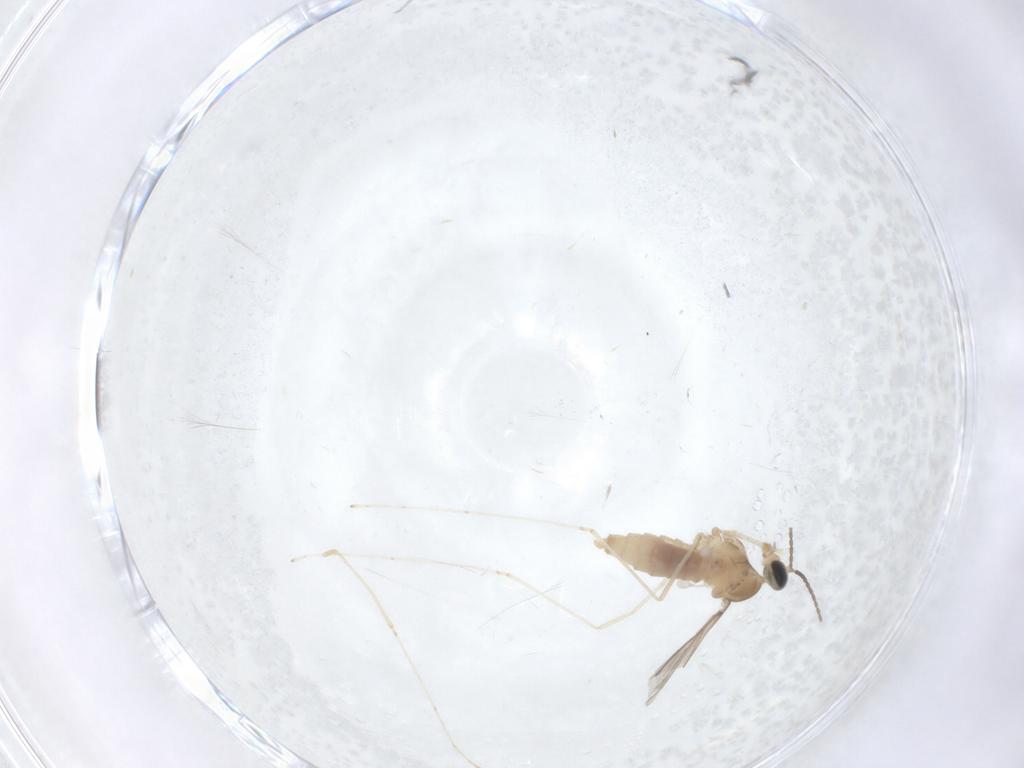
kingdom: Animalia
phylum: Arthropoda
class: Insecta
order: Diptera
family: Cecidomyiidae
